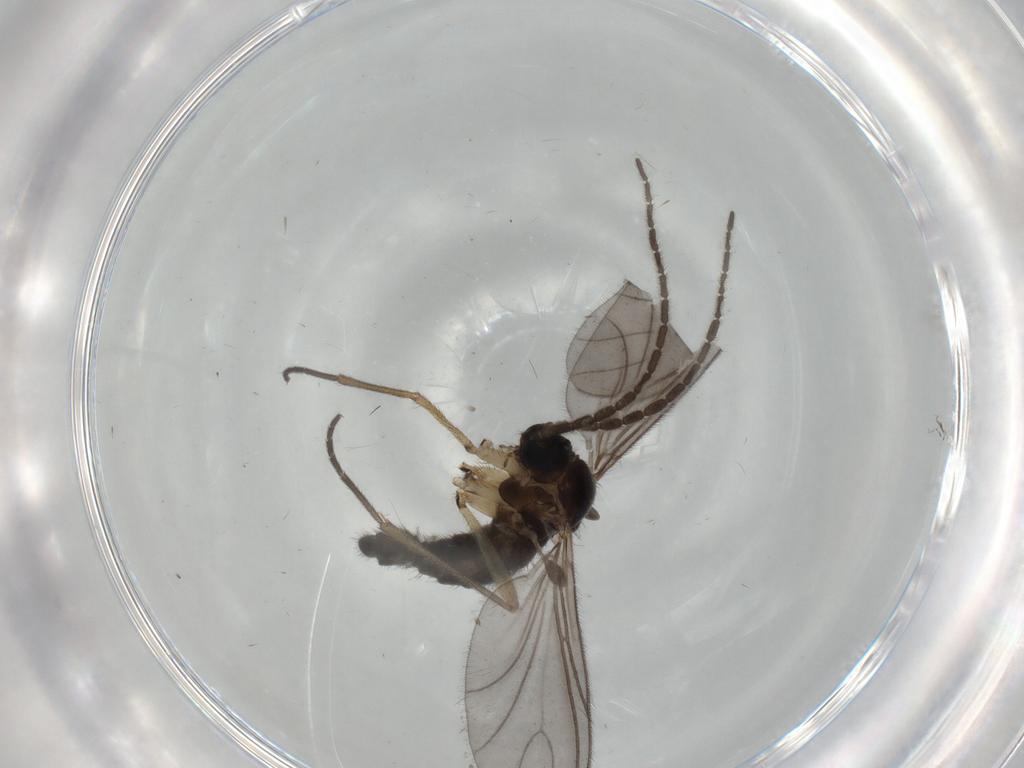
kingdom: Animalia
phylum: Arthropoda
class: Insecta
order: Diptera
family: Sciaridae
